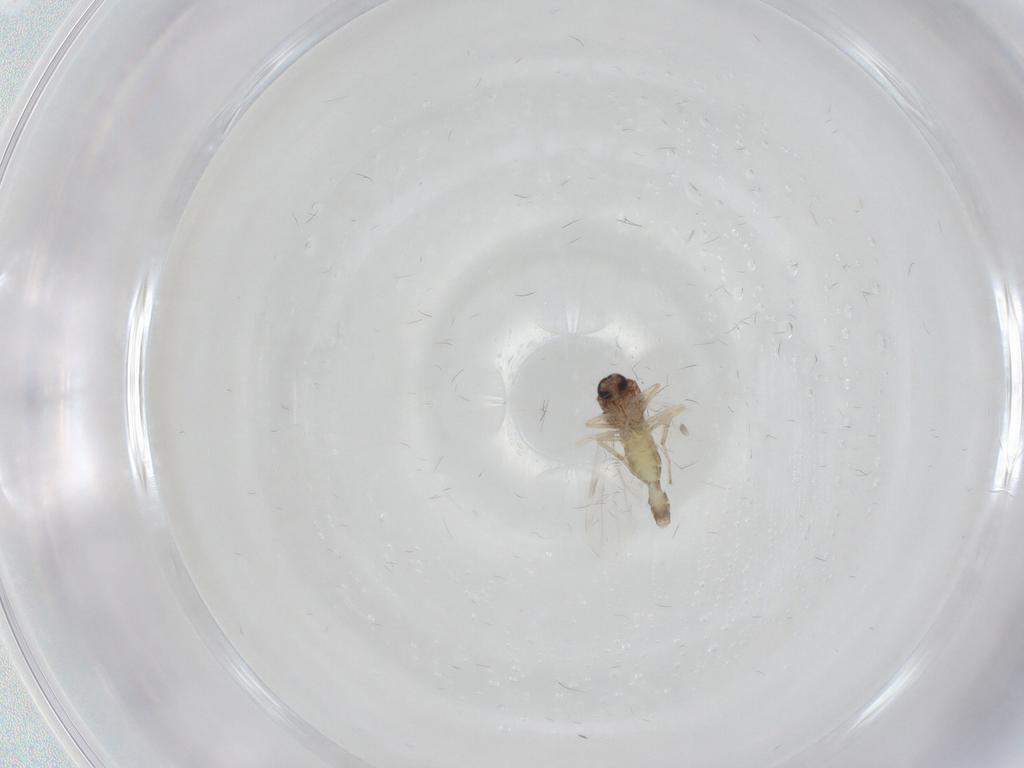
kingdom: Animalia
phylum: Arthropoda
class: Insecta
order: Diptera
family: Ceratopogonidae
